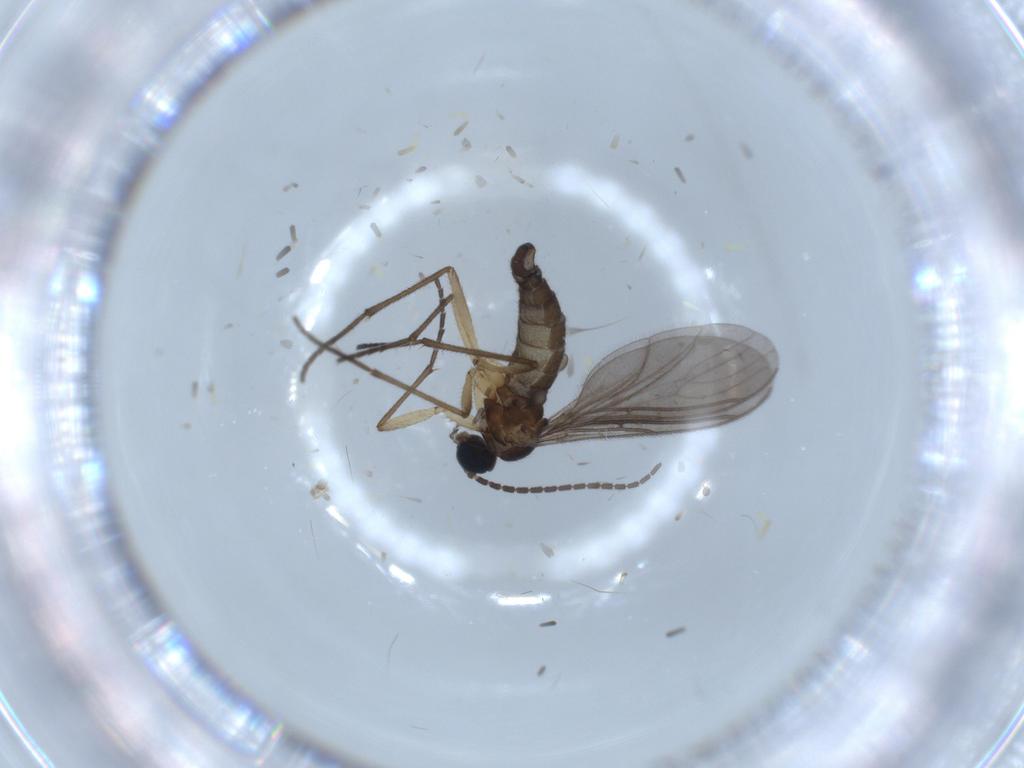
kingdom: Animalia
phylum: Arthropoda
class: Insecta
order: Diptera
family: Sciaridae
